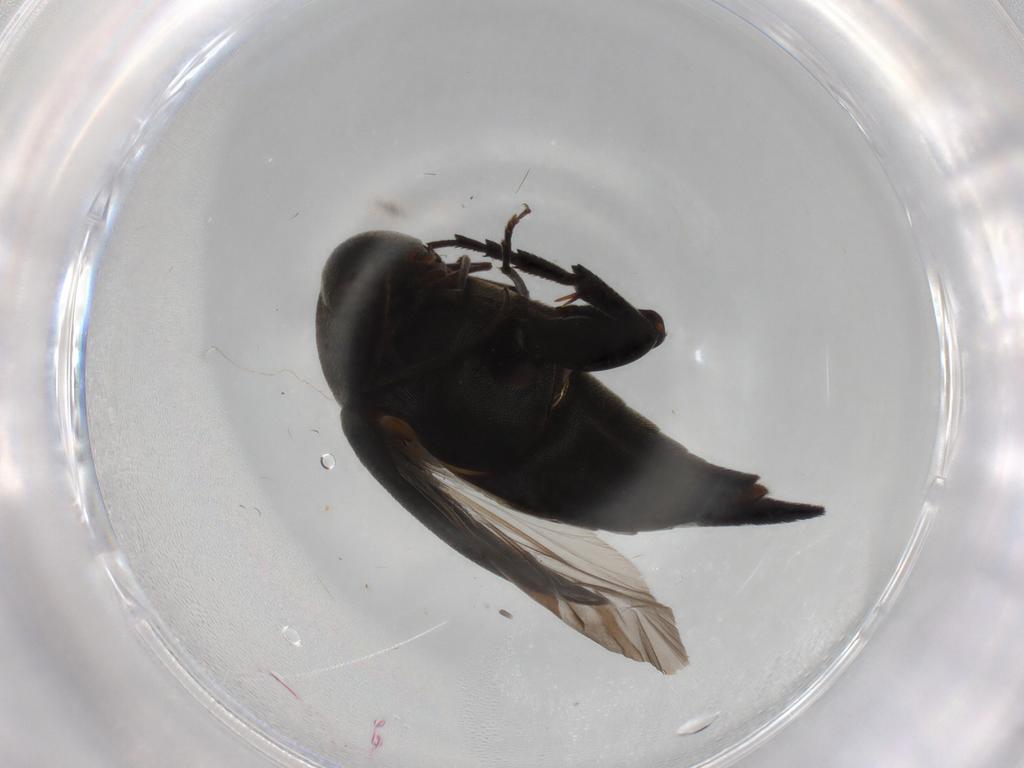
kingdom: Animalia
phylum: Arthropoda
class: Insecta
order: Coleoptera
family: Mordellidae
